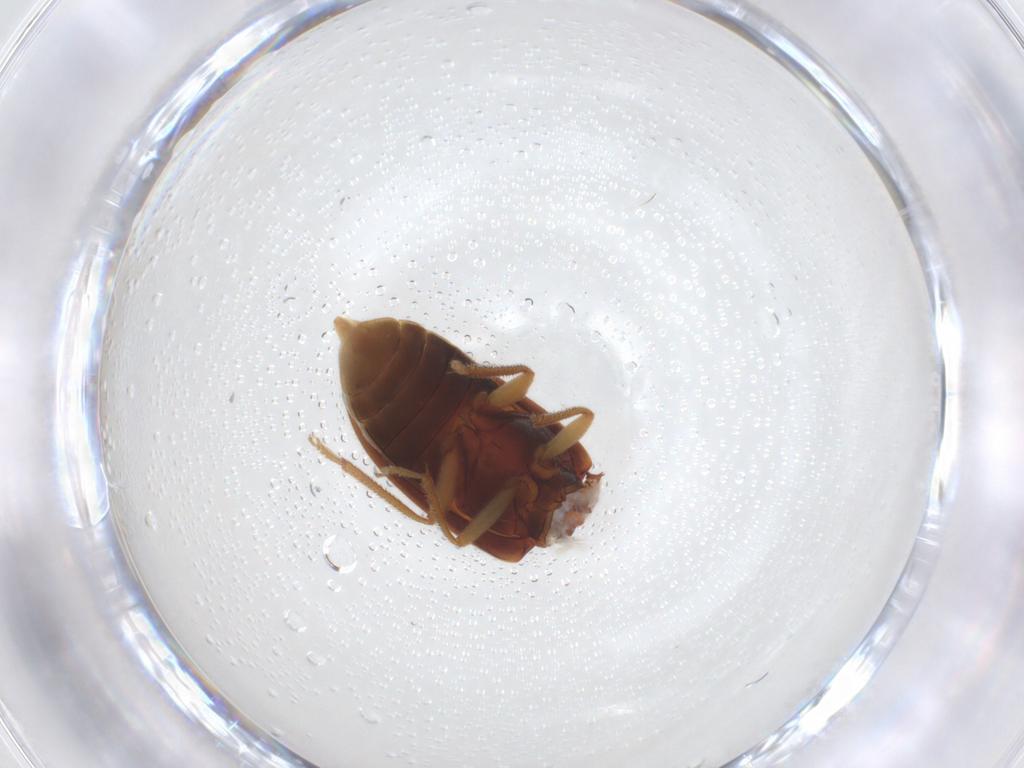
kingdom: Animalia
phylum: Arthropoda
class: Insecta
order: Coleoptera
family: Ptilodactylidae
